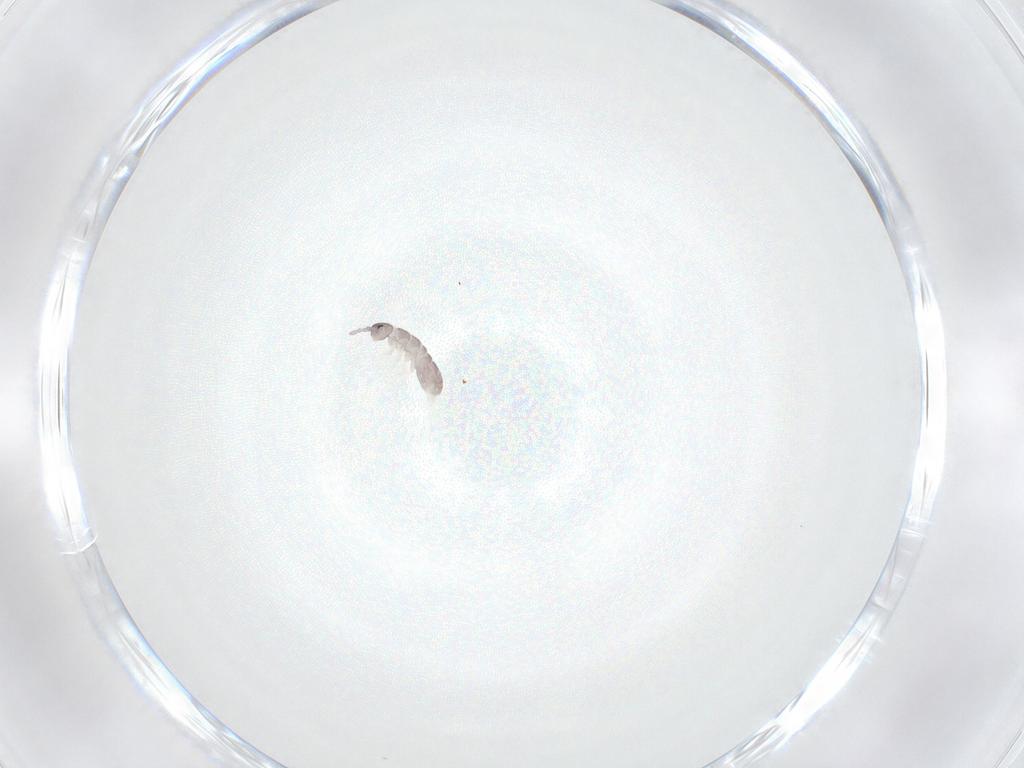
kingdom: Animalia
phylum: Arthropoda
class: Collembola
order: Entomobryomorpha
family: Isotomidae
